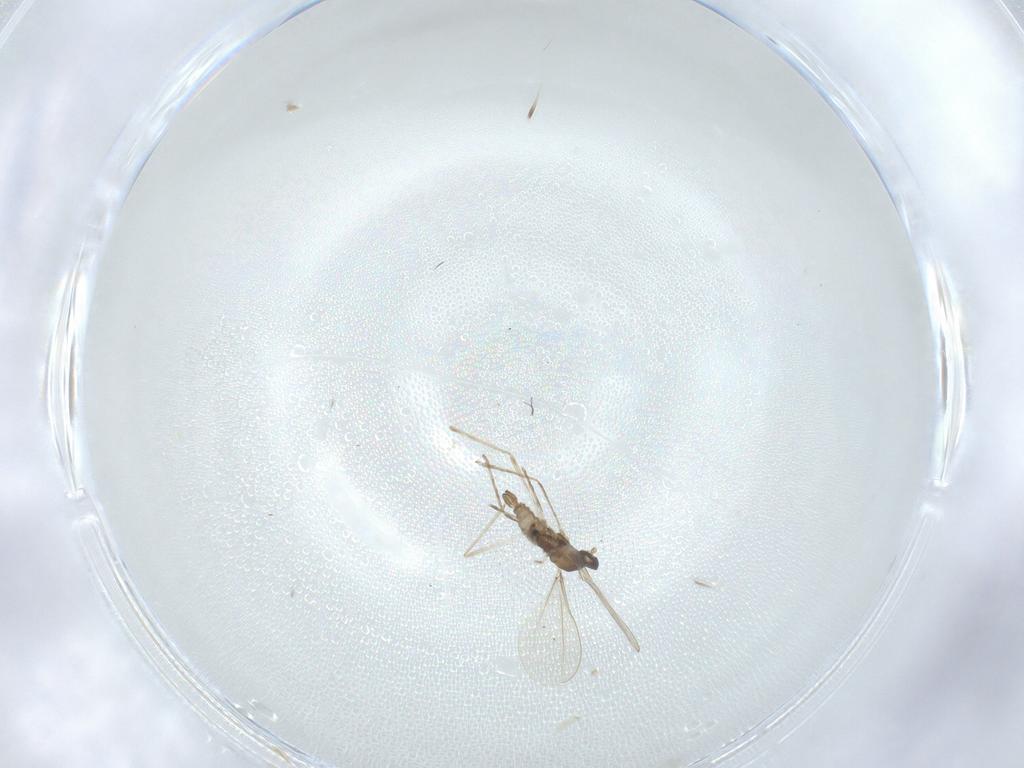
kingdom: Animalia
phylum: Arthropoda
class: Insecta
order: Diptera
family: Cecidomyiidae
